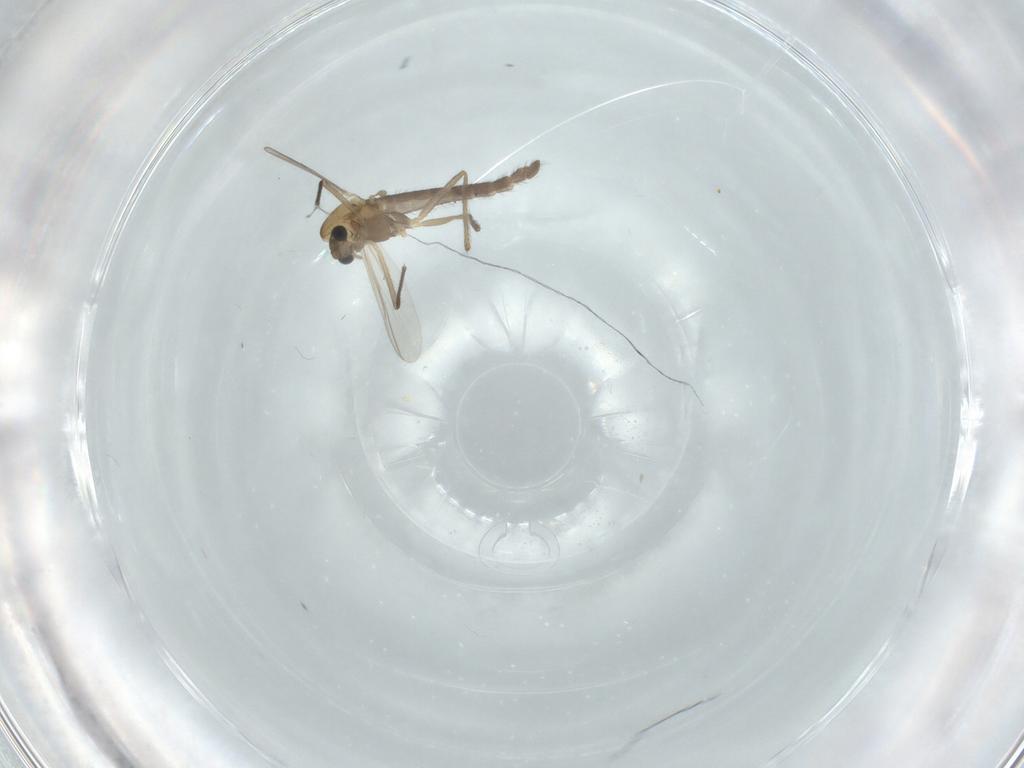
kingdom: Animalia
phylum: Arthropoda
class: Insecta
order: Diptera
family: Chironomidae
